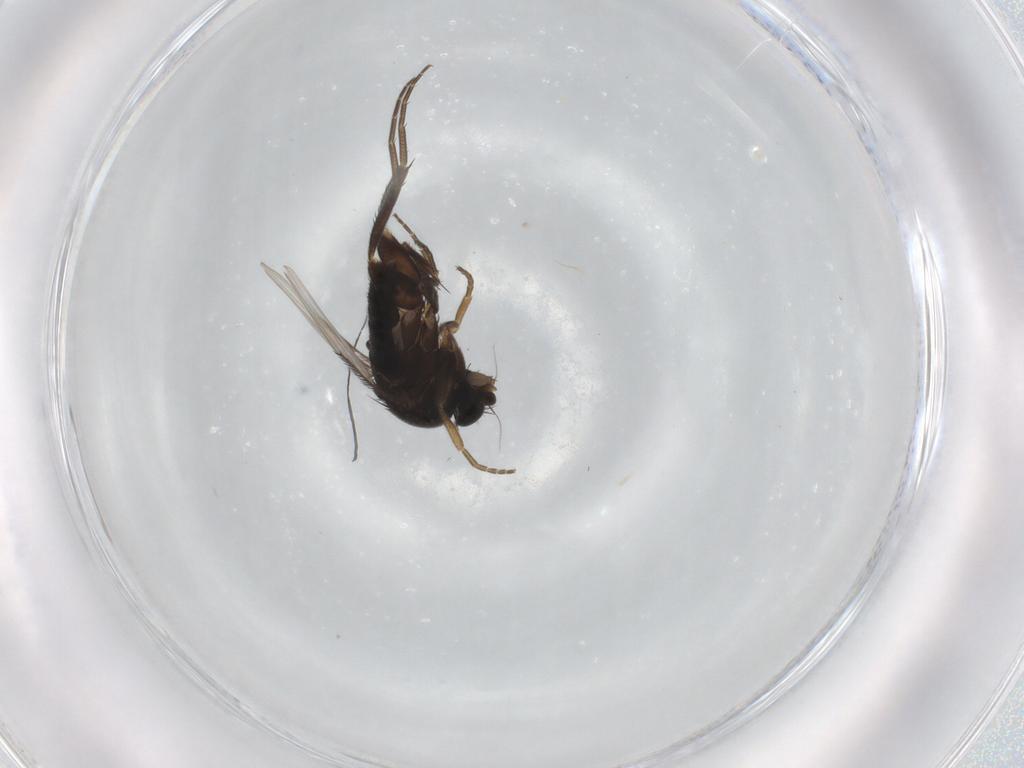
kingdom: Animalia
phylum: Arthropoda
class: Insecta
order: Diptera
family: Phoridae
